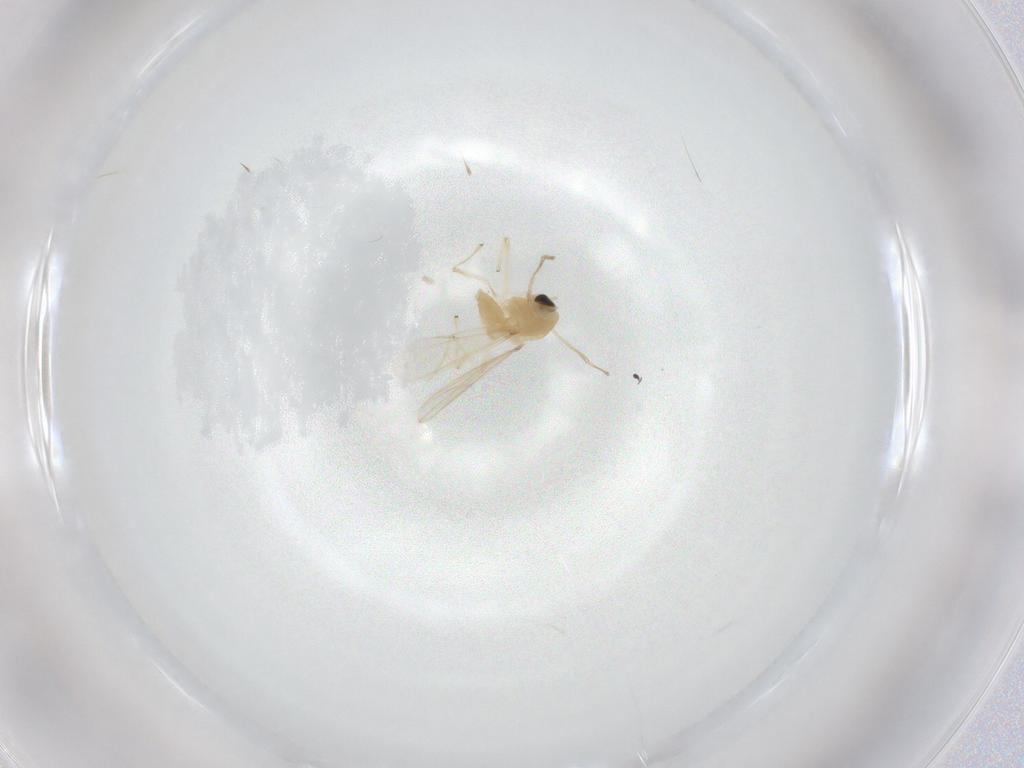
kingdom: Animalia
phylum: Arthropoda
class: Insecta
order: Diptera
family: Chironomidae
